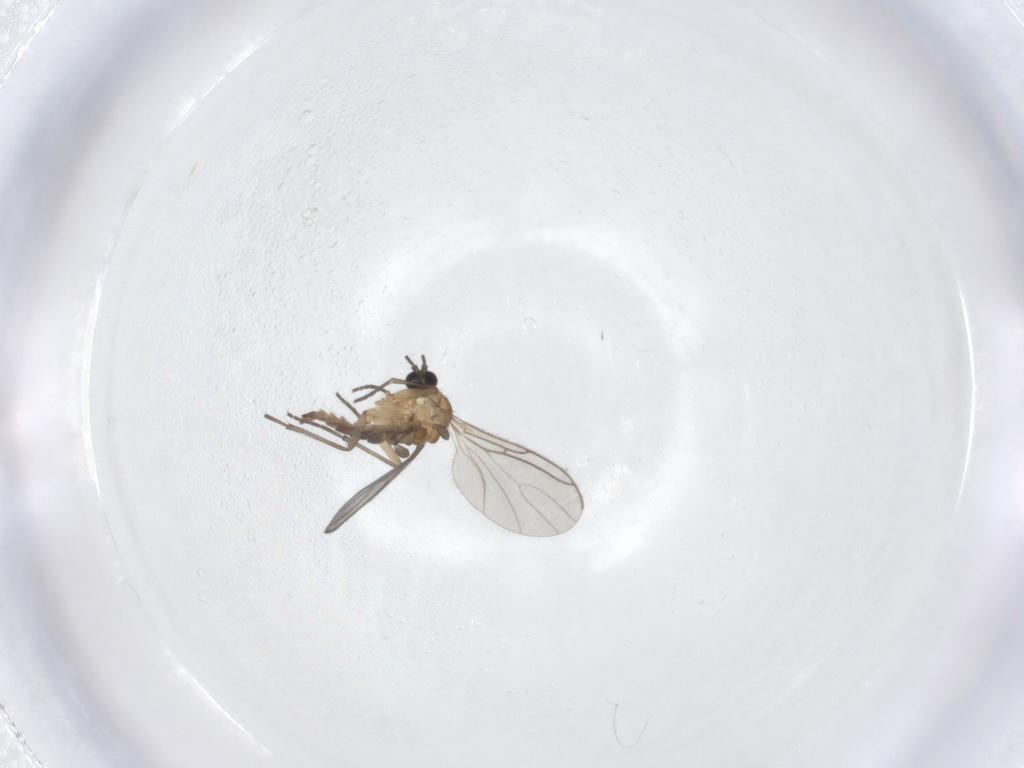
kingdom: Animalia
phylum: Arthropoda
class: Insecta
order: Diptera
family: Sciaridae
